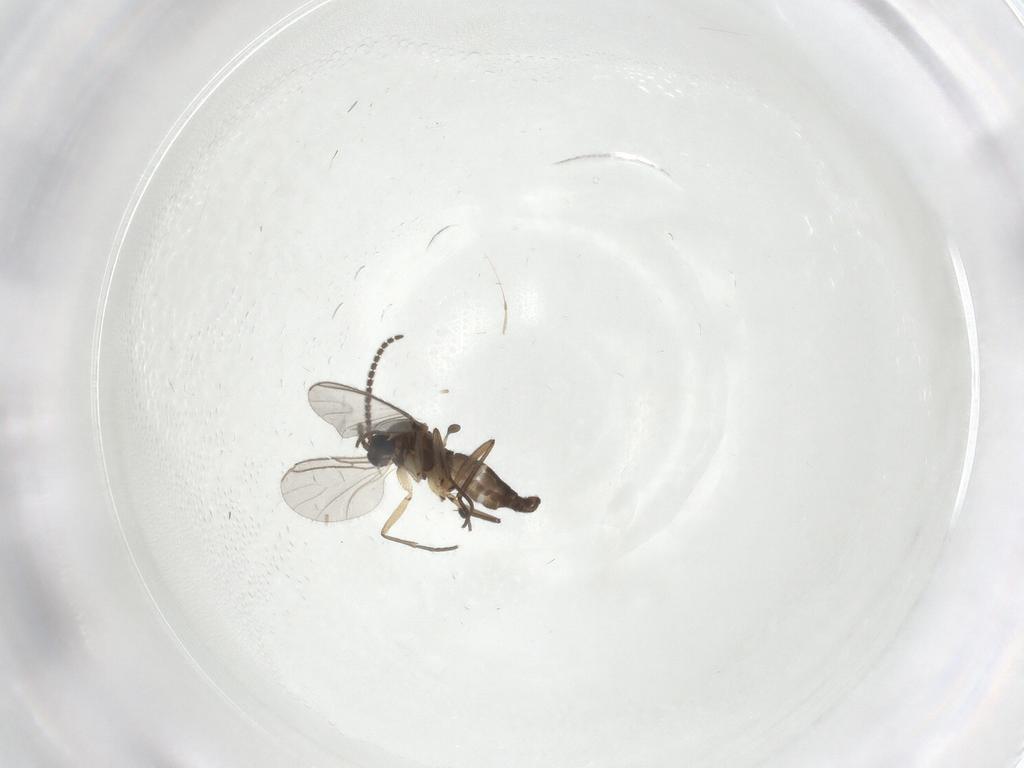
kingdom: Animalia
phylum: Arthropoda
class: Insecta
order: Diptera
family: Sciaridae
